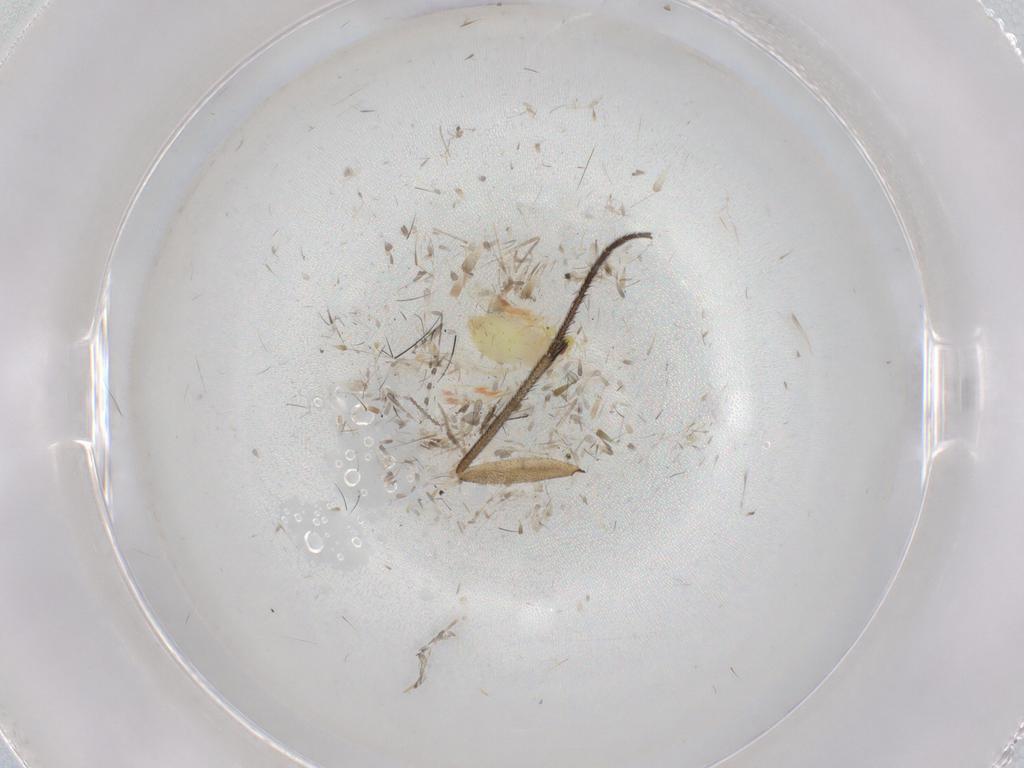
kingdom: Animalia
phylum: Arthropoda
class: Insecta
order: Hemiptera
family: Aleyrodidae
